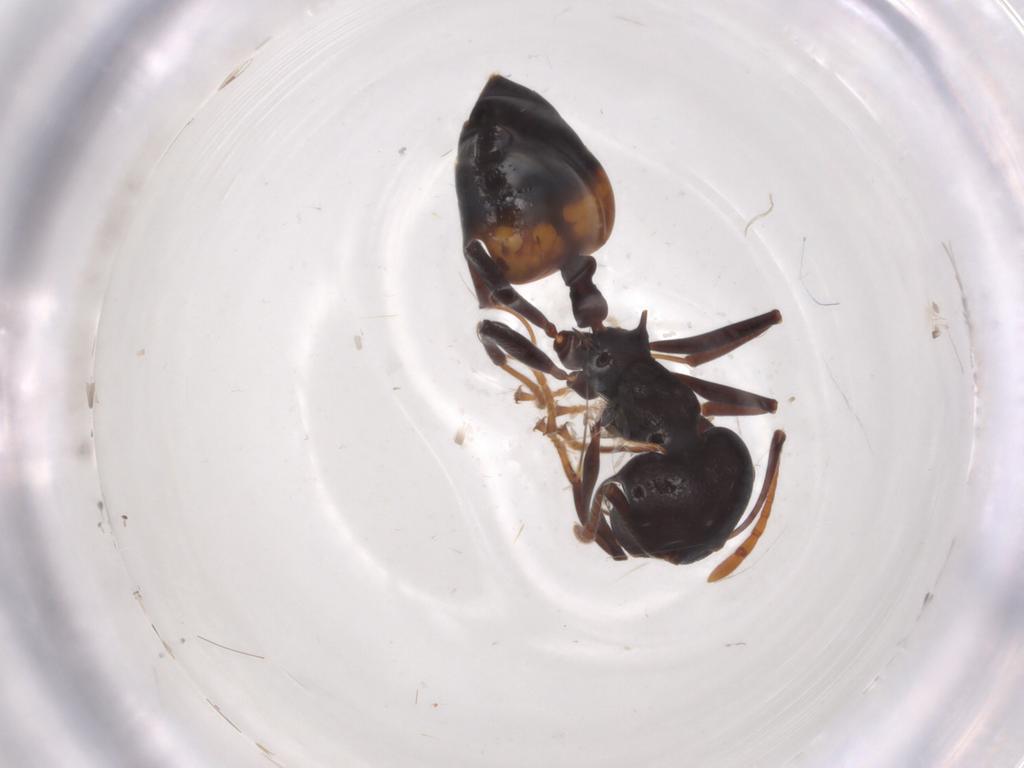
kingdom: Animalia
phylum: Arthropoda
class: Insecta
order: Hymenoptera
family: Formicidae
